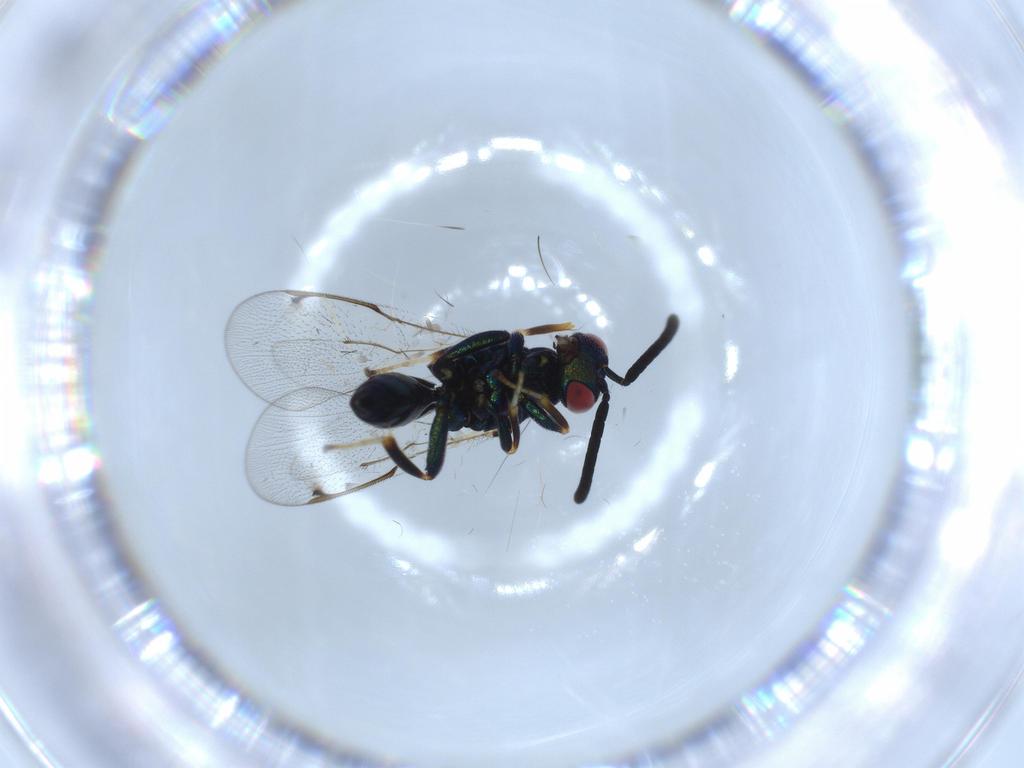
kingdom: Animalia
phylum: Arthropoda
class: Insecta
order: Hymenoptera
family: Torymidae
